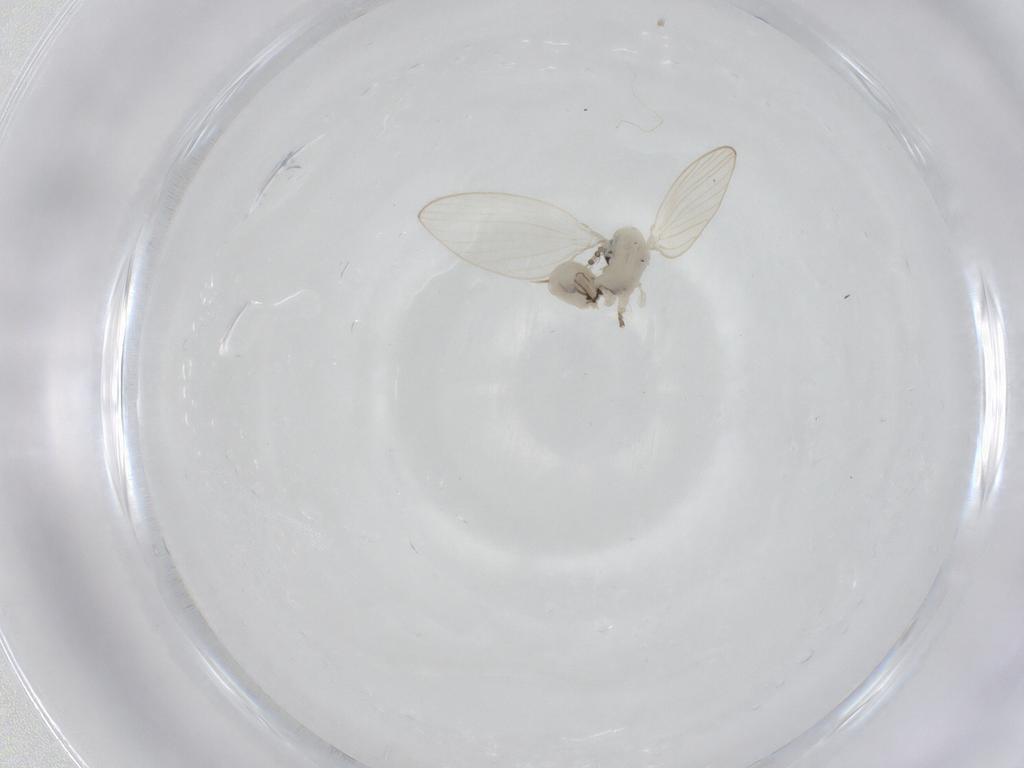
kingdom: Animalia
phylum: Arthropoda
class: Insecta
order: Diptera
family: Psychodidae
